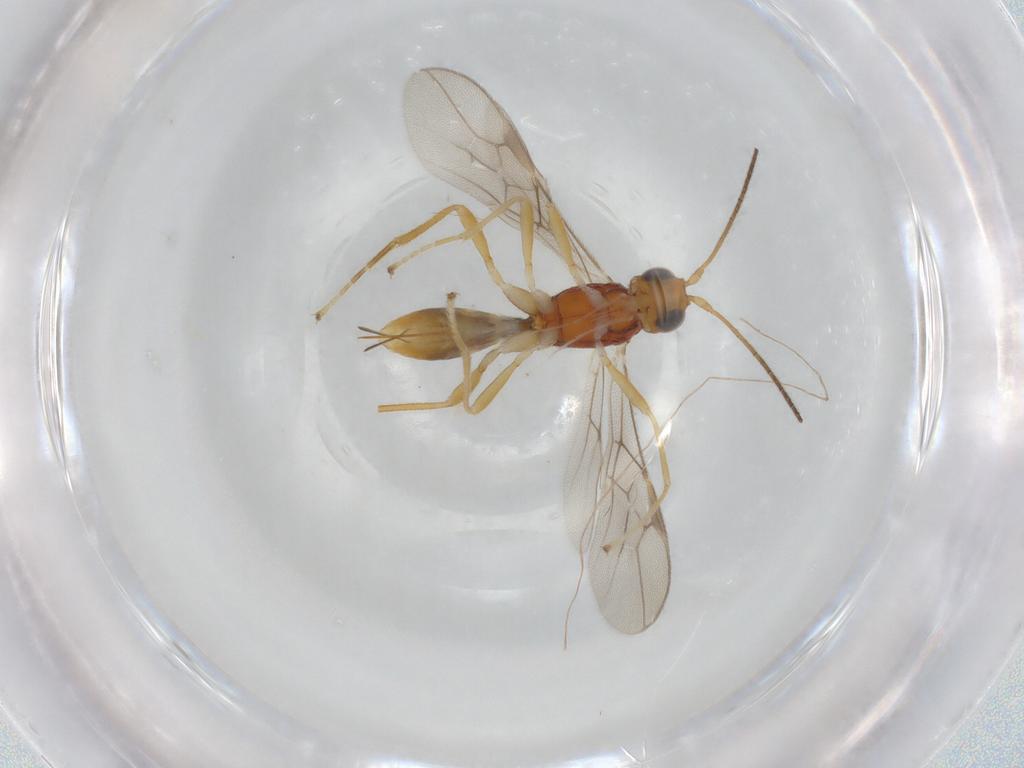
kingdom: Animalia
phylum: Arthropoda
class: Insecta
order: Hymenoptera
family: Braconidae
